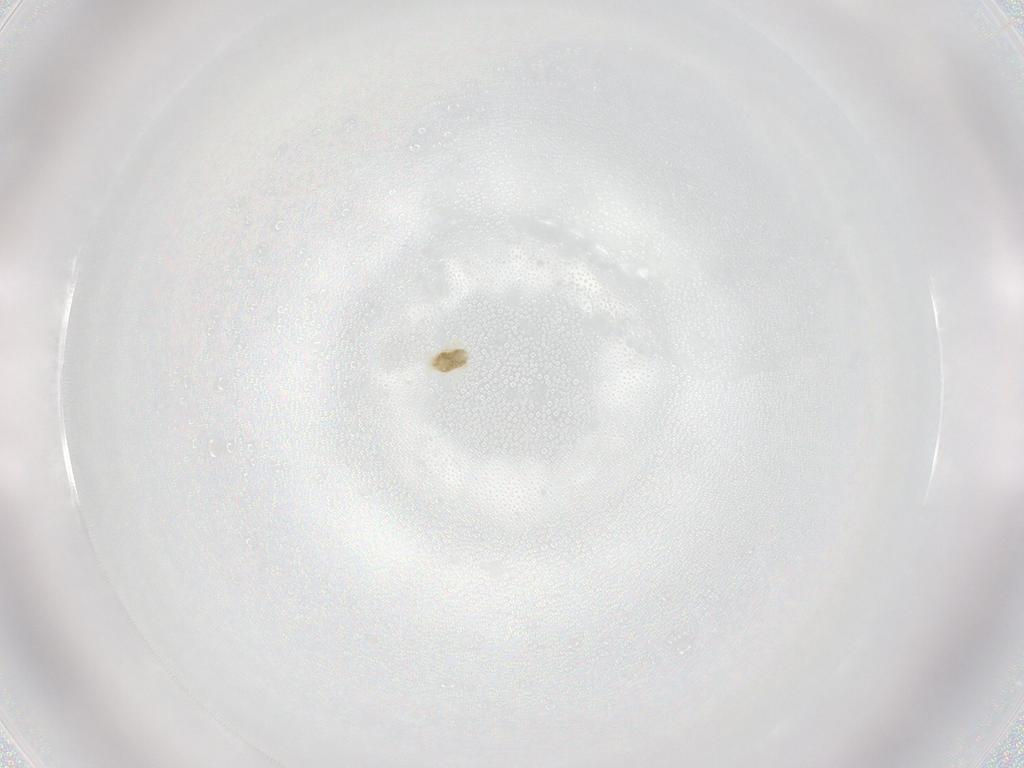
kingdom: Animalia
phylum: Arthropoda
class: Arachnida
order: Trombidiformes
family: Eupodidae
